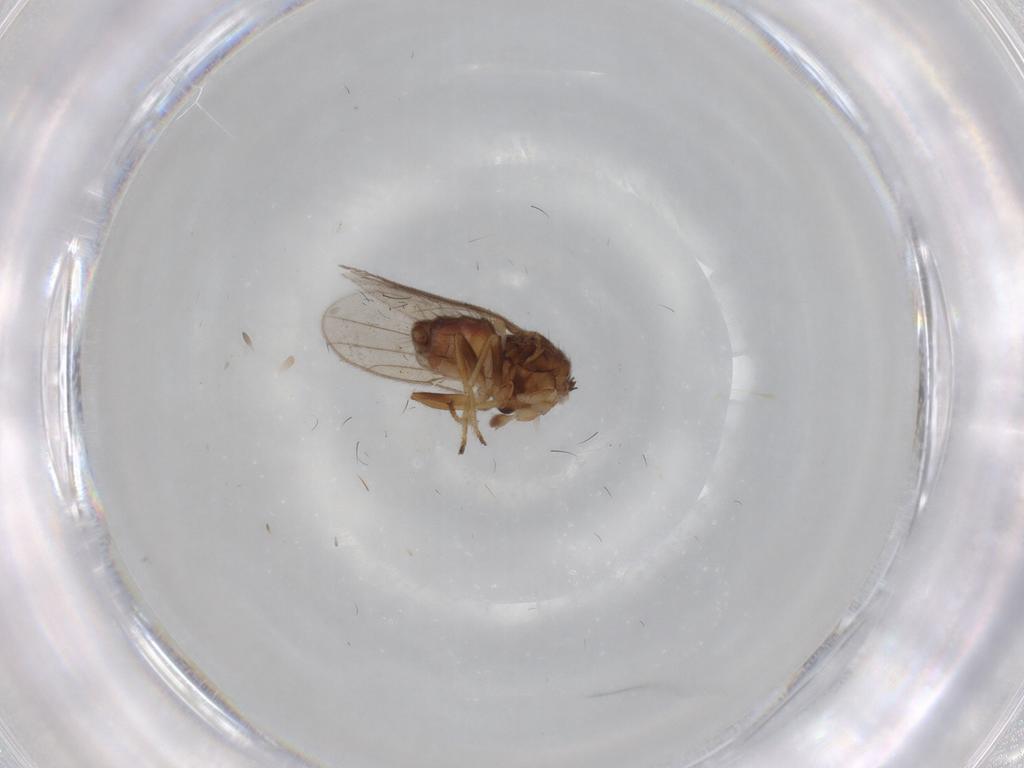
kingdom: Animalia
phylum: Arthropoda
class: Insecta
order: Diptera
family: Chloropidae
